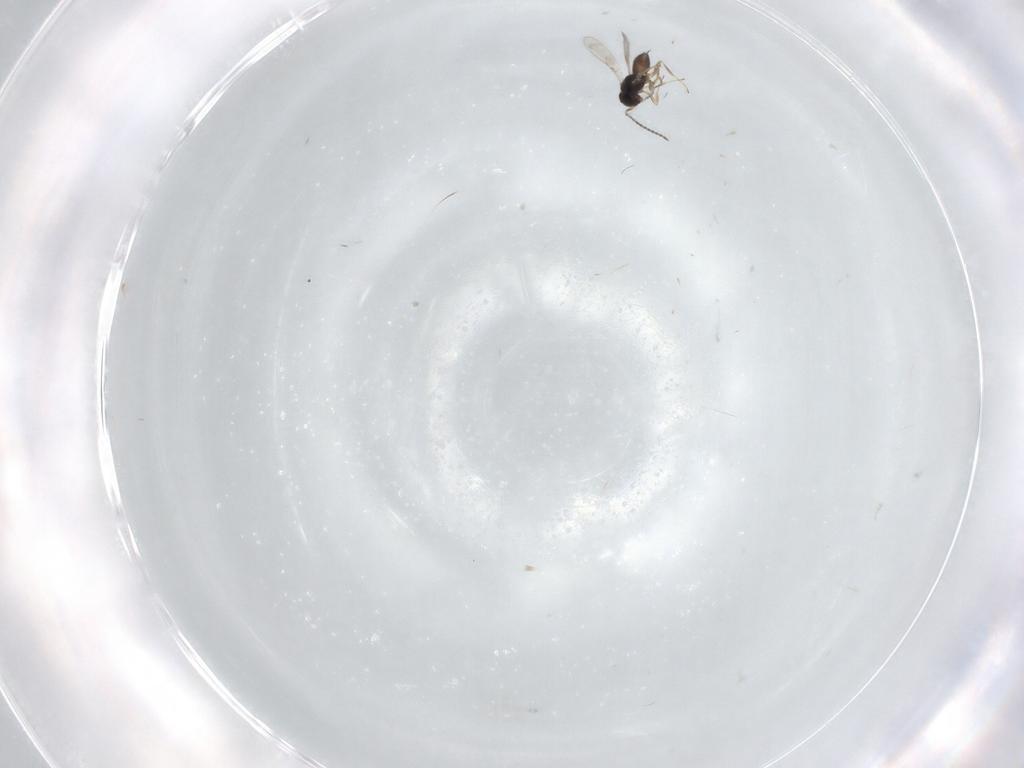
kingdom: Animalia
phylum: Arthropoda
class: Insecta
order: Hymenoptera
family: Scelionidae
